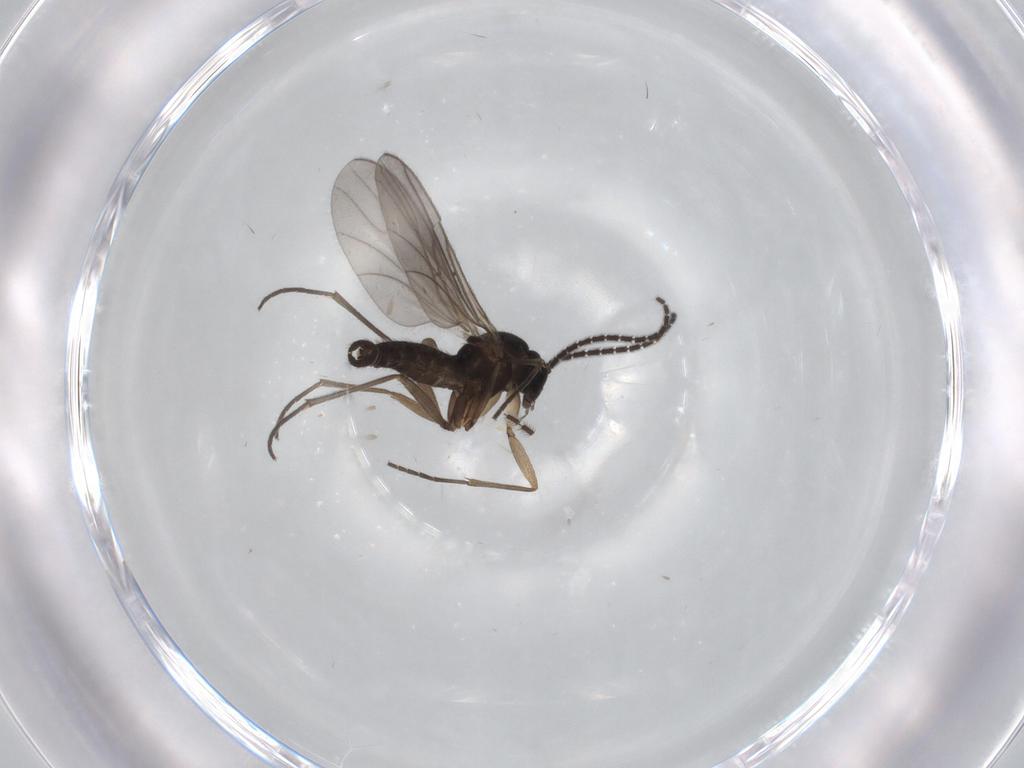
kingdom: Animalia
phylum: Arthropoda
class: Insecta
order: Diptera
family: Sciaridae
